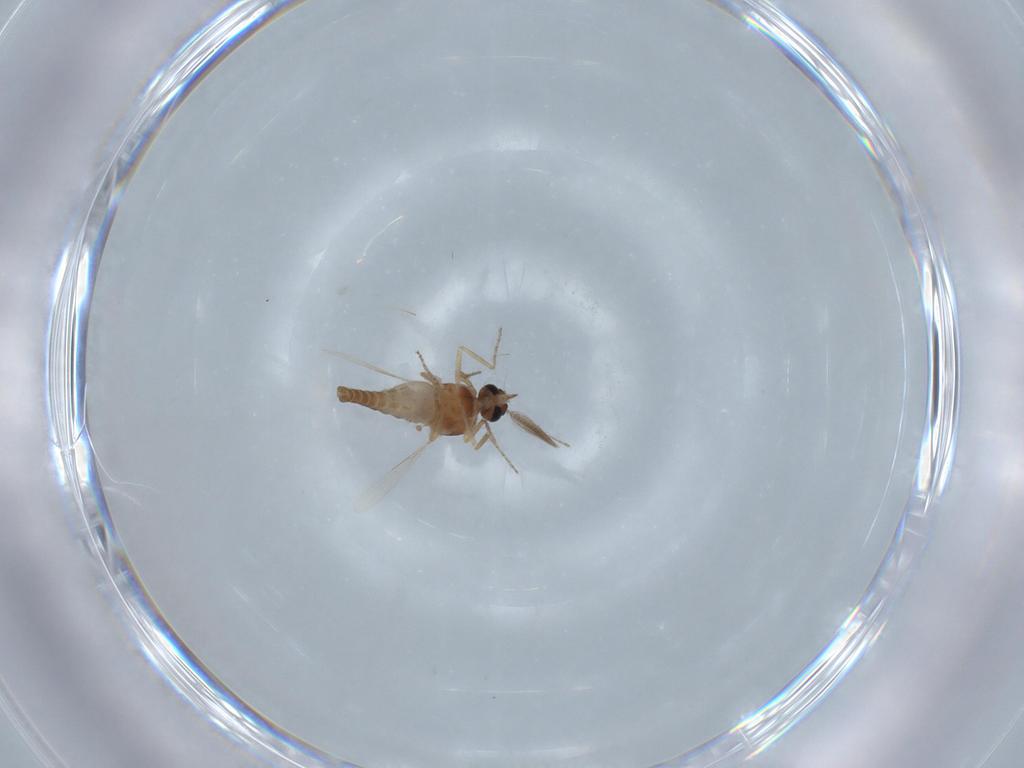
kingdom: Animalia
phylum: Arthropoda
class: Insecta
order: Diptera
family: Ceratopogonidae
